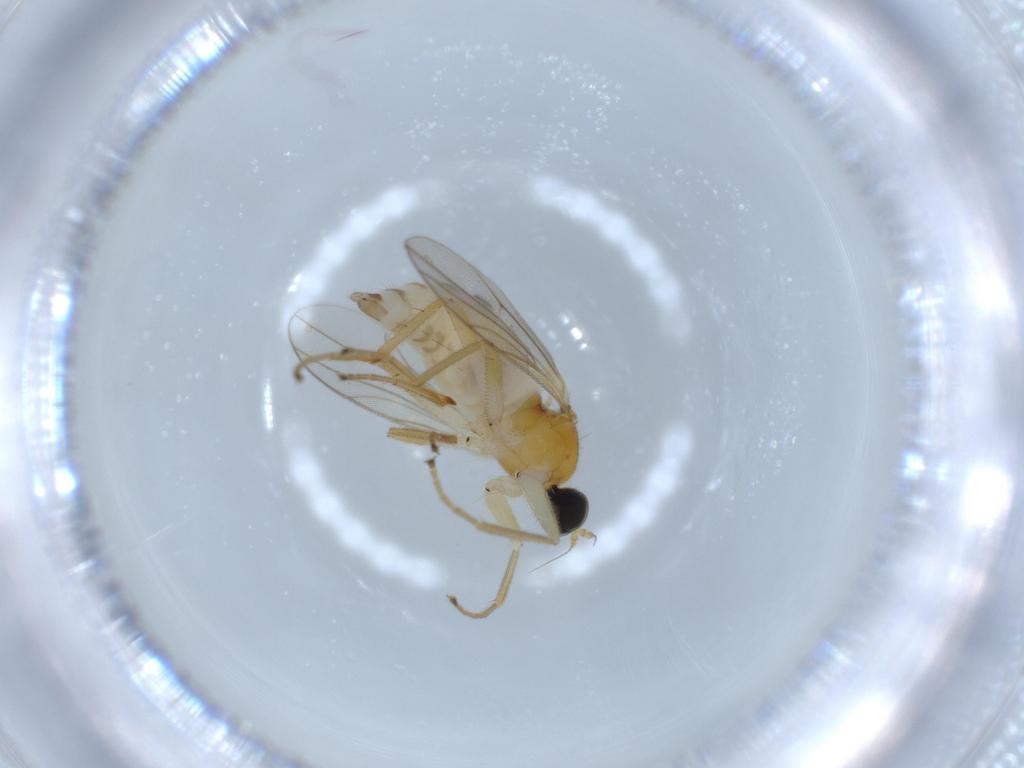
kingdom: Animalia
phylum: Arthropoda
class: Insecta
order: Diptera
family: Hybotidae
